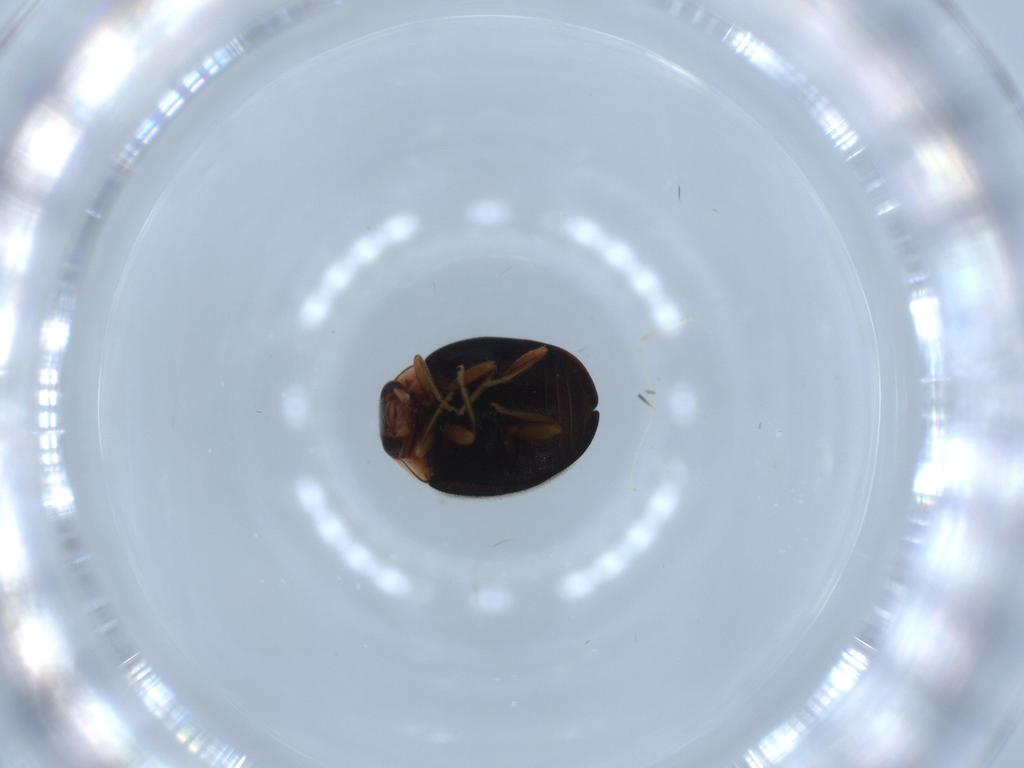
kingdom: Animalia
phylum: Arthropoda
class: Insecta
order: Coleoptera
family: Coccinellidae
